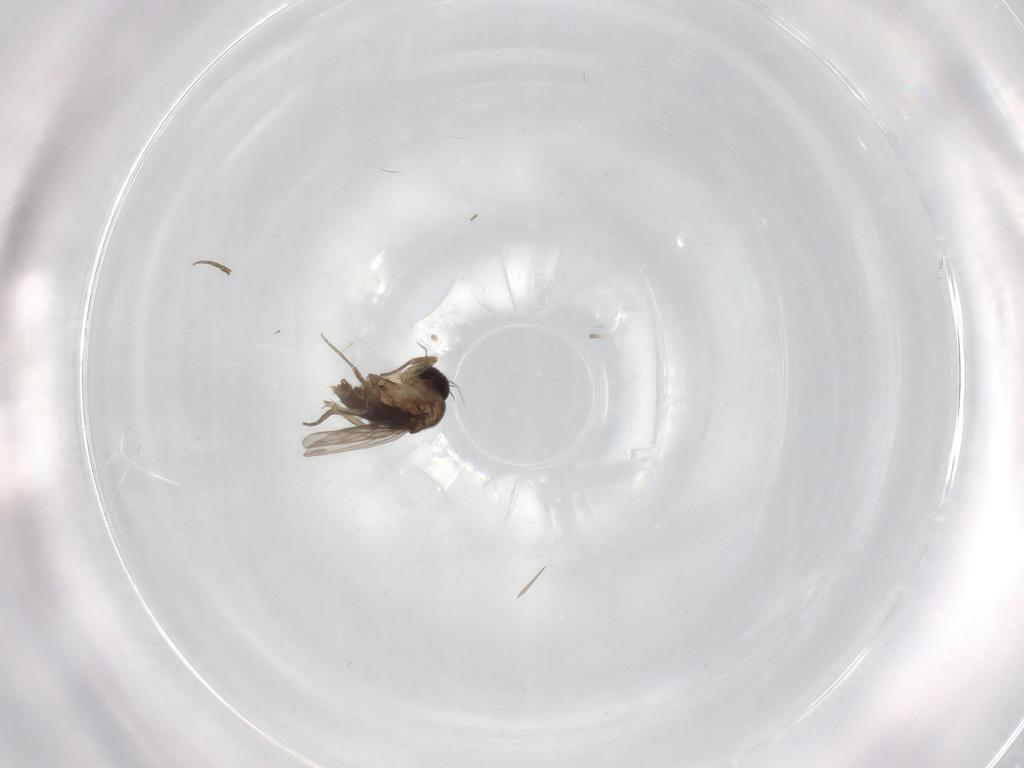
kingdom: Animalia
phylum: Arthropoda
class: Insecta
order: Diptera
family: Phoridae
